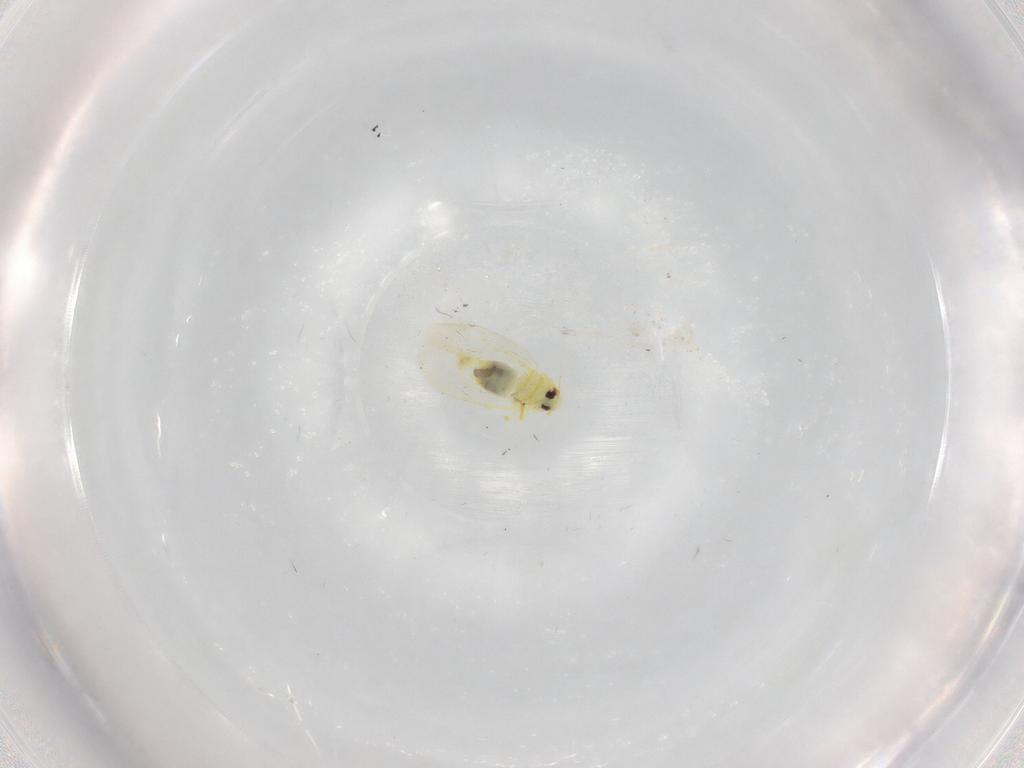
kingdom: Animalia
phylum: Arthropoda
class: Insecta
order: Hemiptera
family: Aleyrodidae
